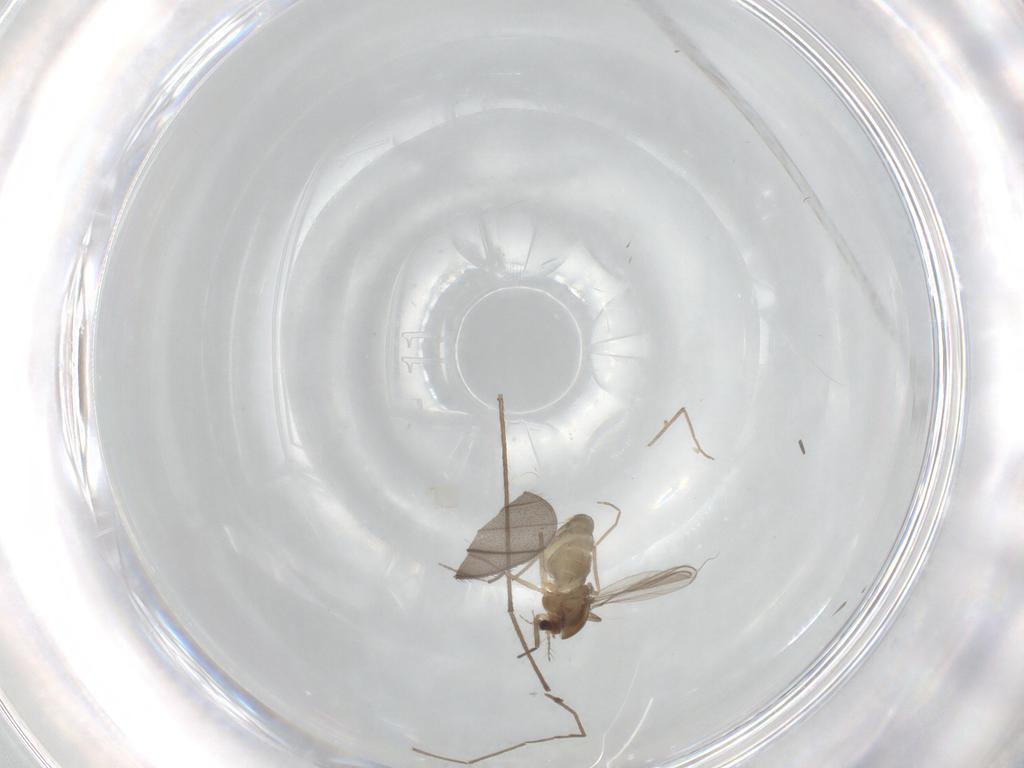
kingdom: Animalia
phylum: Arthropoda
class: Insecta
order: Diptera
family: Chironomidae
